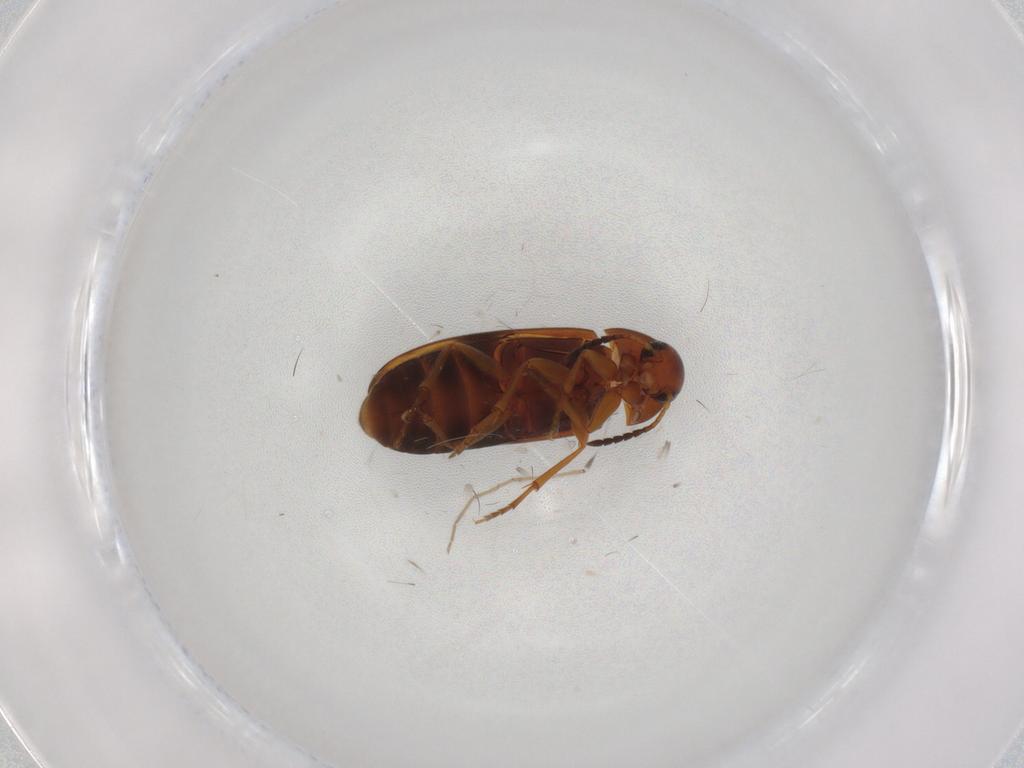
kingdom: Animalia
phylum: Arthropoda
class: Insecta
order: Coleoptera
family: Scraptiidae
